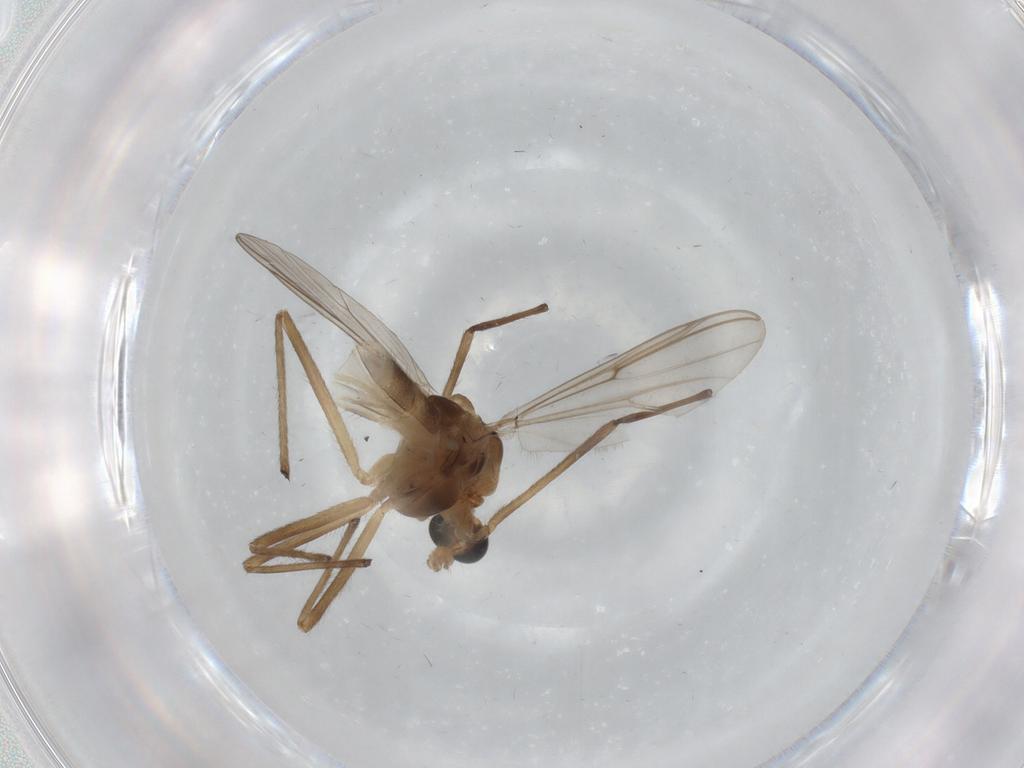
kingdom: Animalia
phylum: Arthropoda
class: Insecta
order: Diptera
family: Chironomidae
